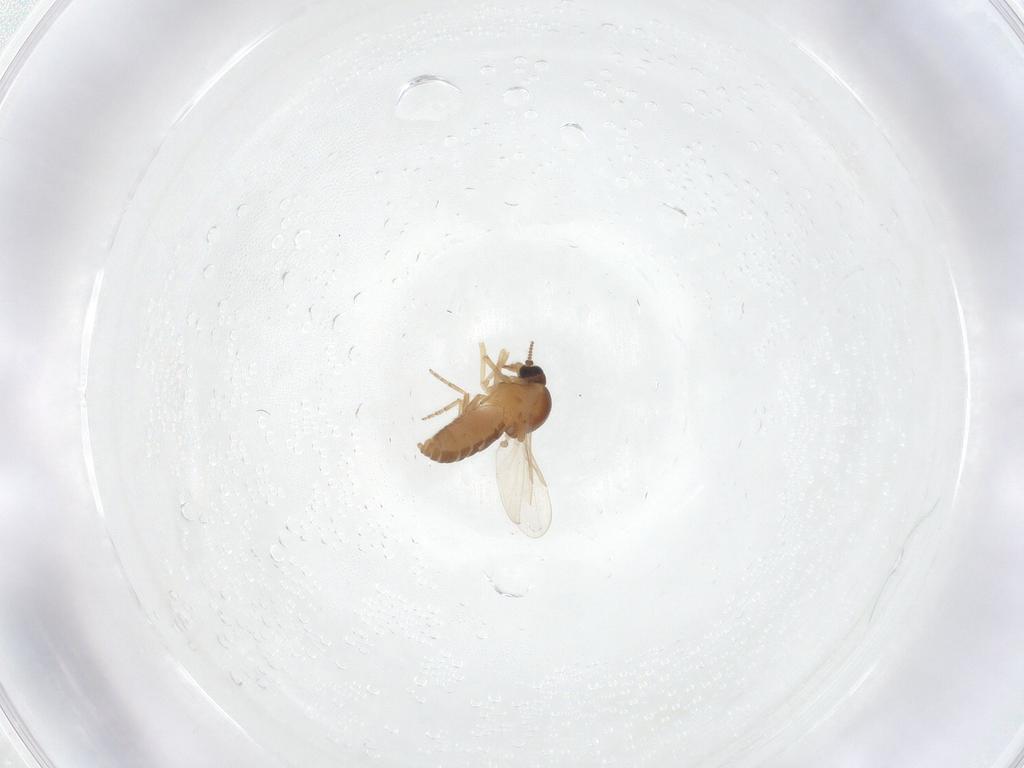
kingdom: Animalia
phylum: Arthropoda
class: Insecta
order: Diptera
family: Ceratopogonidae
